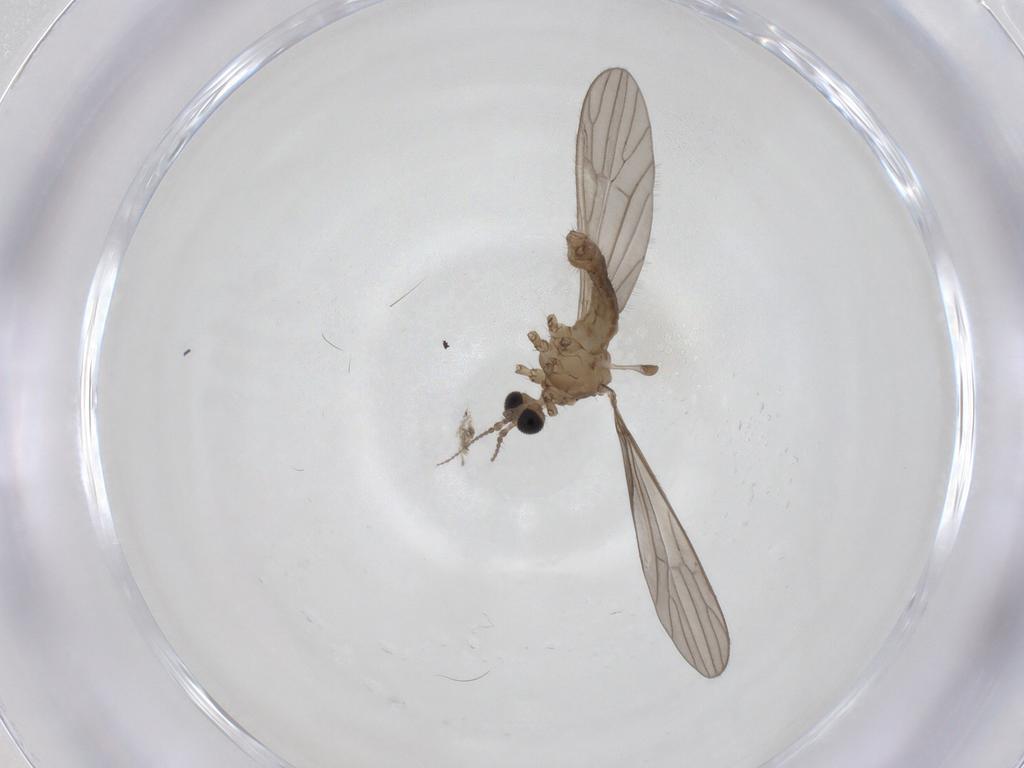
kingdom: Animalia
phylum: Arthropoda
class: Insecta
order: Diptera
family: Limoniidae
